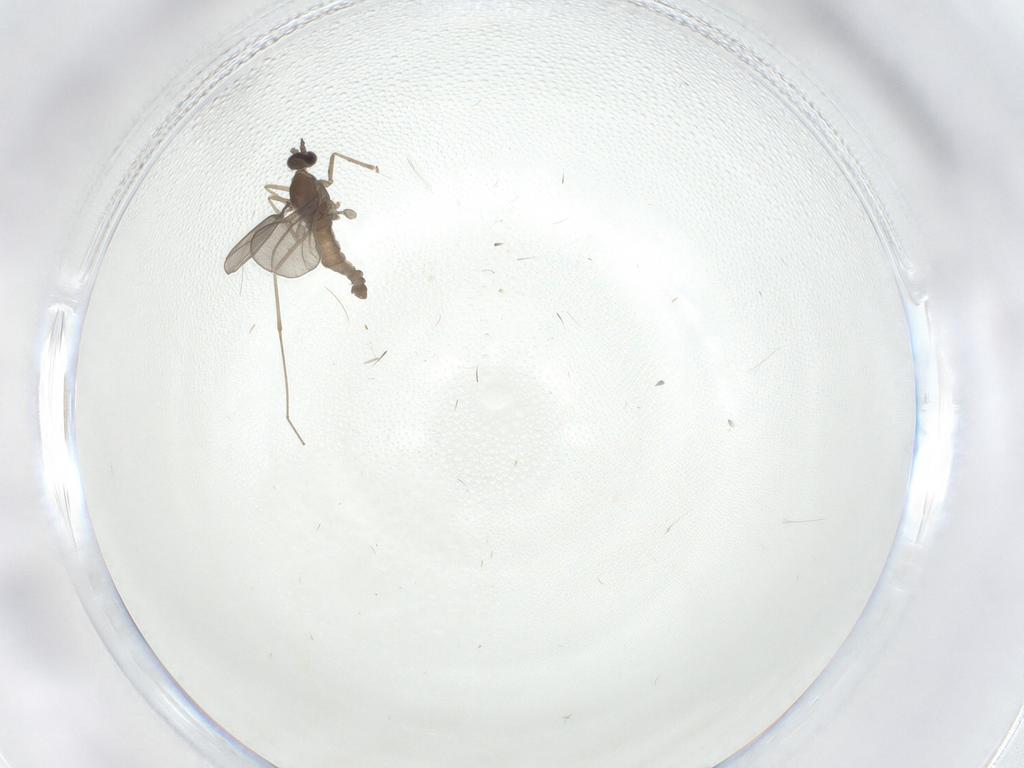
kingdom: Animalia
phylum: Arthropoda
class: Insecta
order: Diptera
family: Cecidomyiidae
